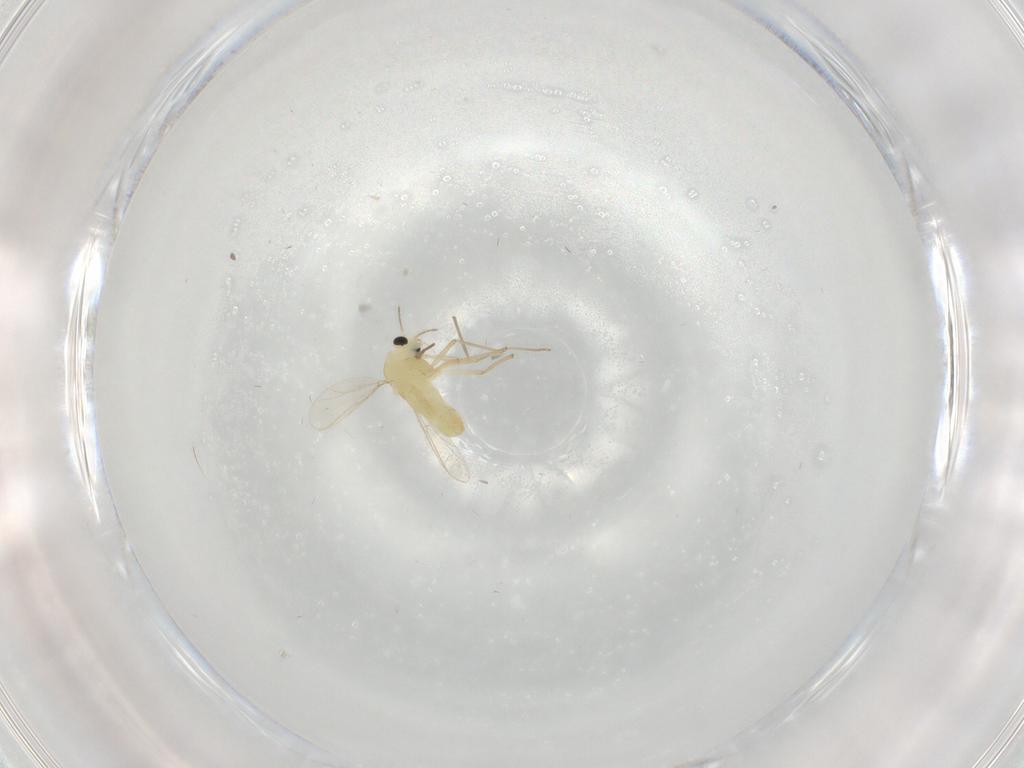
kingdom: Animalia
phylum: Arthropoda
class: Insecta
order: Diptera
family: Chironomidae
